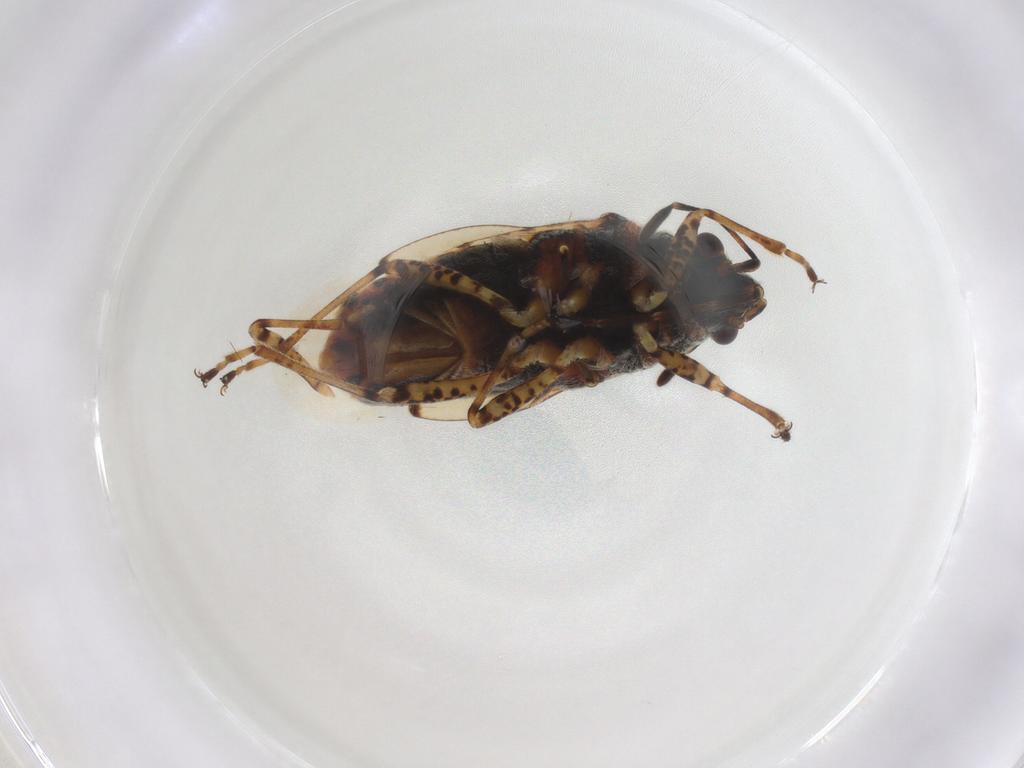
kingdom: Animalia
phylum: Arthropoda
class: Insecta
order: Hemiptera
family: Lygaeidae
